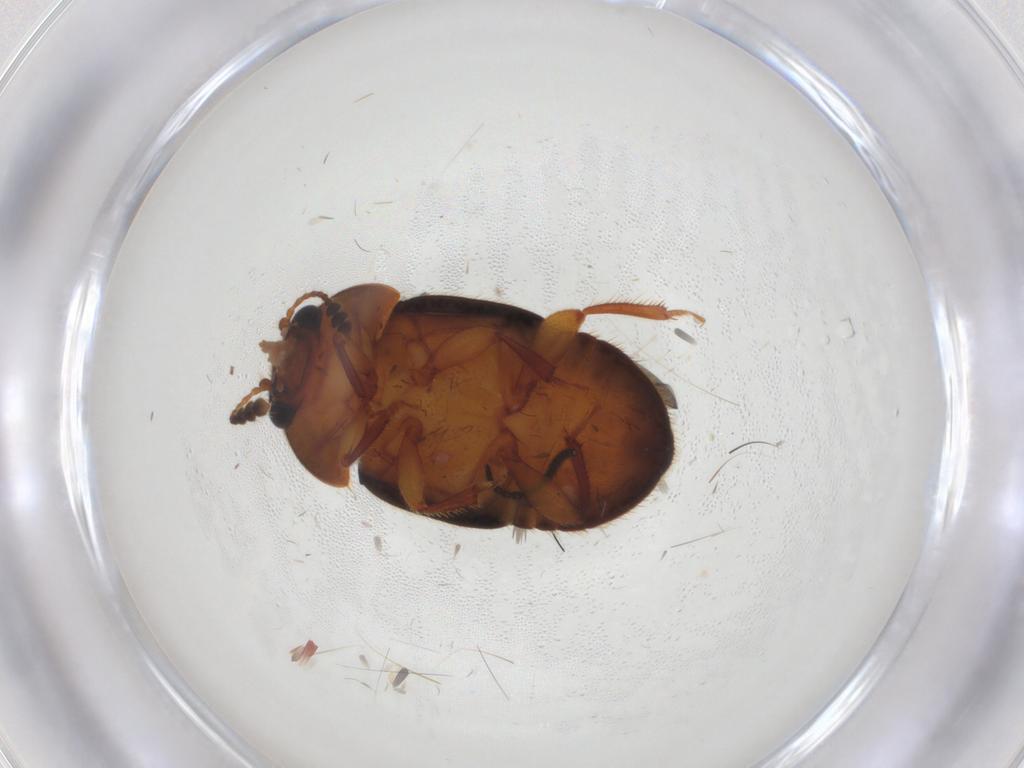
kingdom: Animalia
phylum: Arthropoda
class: Insecta
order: Coleoptera
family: Nitidulidae
